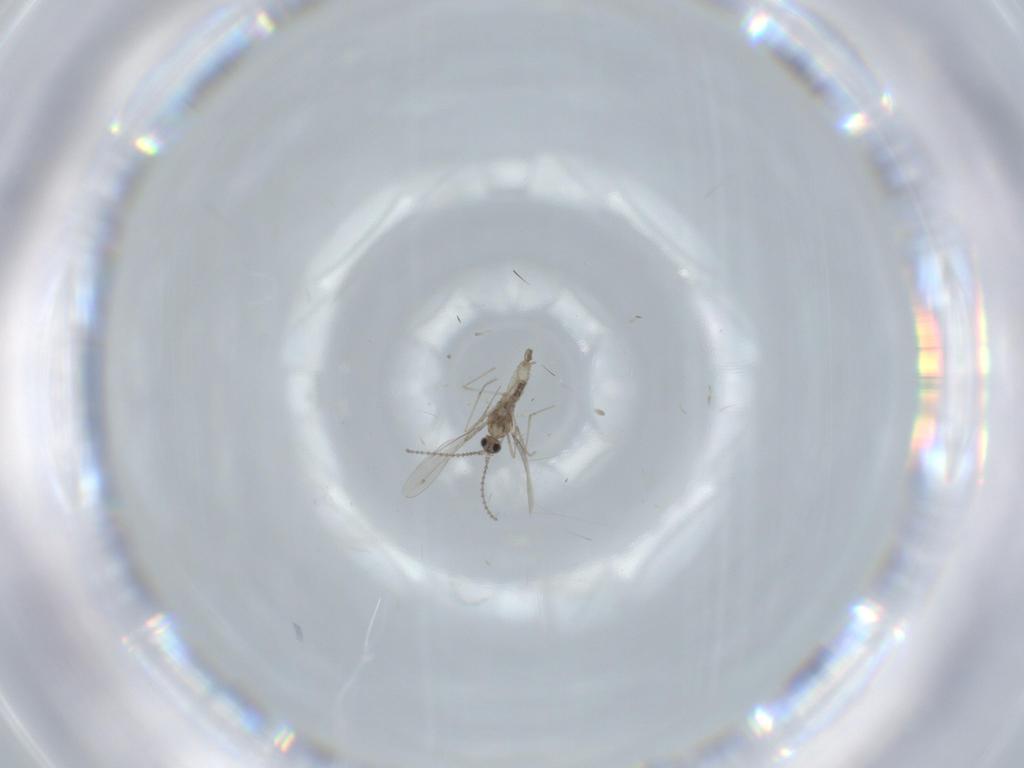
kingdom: Animalia
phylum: Arthropoda
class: Insecta
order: Diptera
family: Cecidomyiidae
